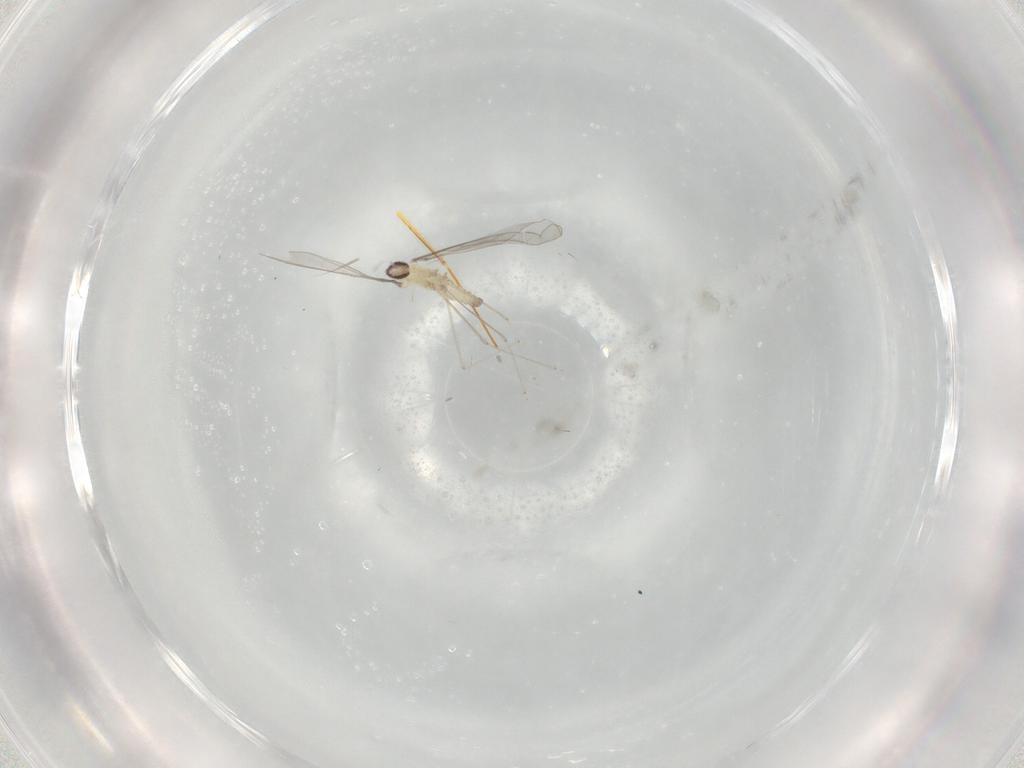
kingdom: Animalia
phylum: Arthropoda
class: Insecta
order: Diptera
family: Cecidomyiidae
